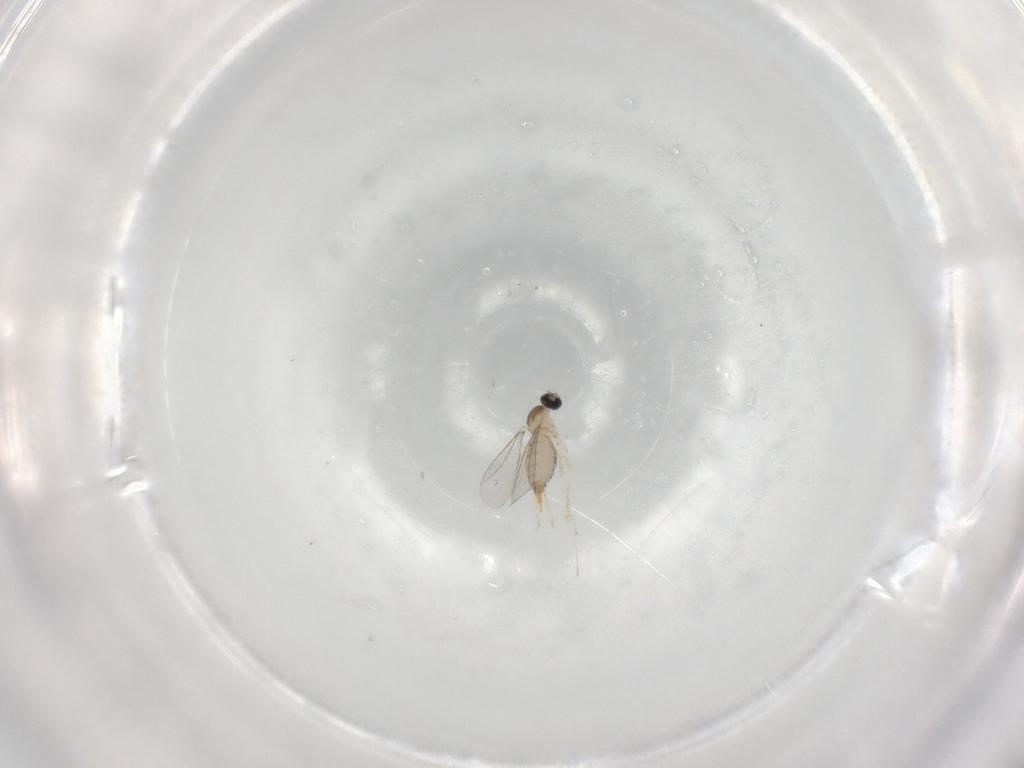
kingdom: Animalia
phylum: Arthropoda
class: Insecta
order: Diptera
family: Cecidomyiidae
